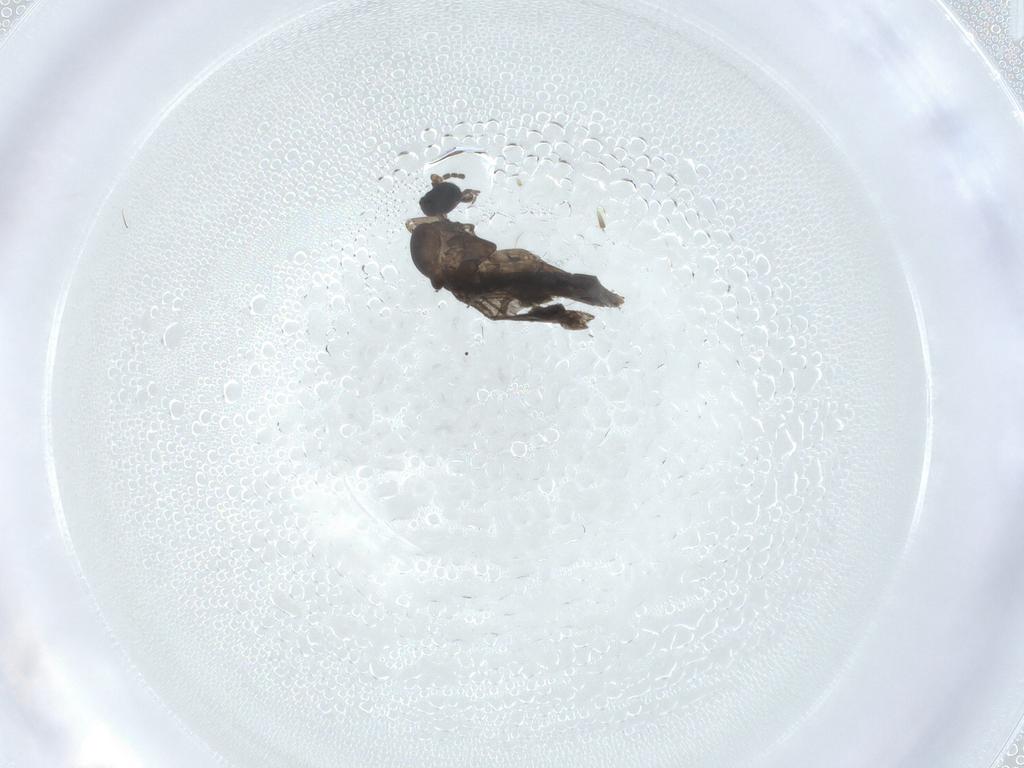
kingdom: Animalia
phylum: Arthropoda
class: Insecta
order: Diptera
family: Sciaridae
